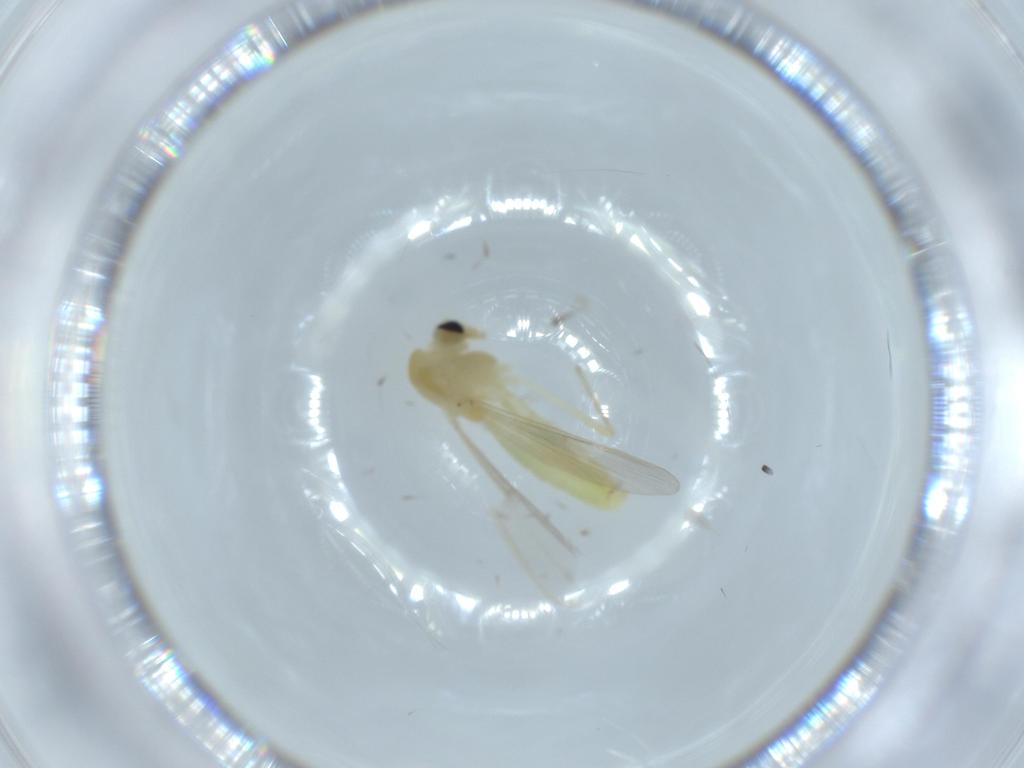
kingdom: Animalia
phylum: Arthropoda
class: Insecta
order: Diptera
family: Chironomidae
